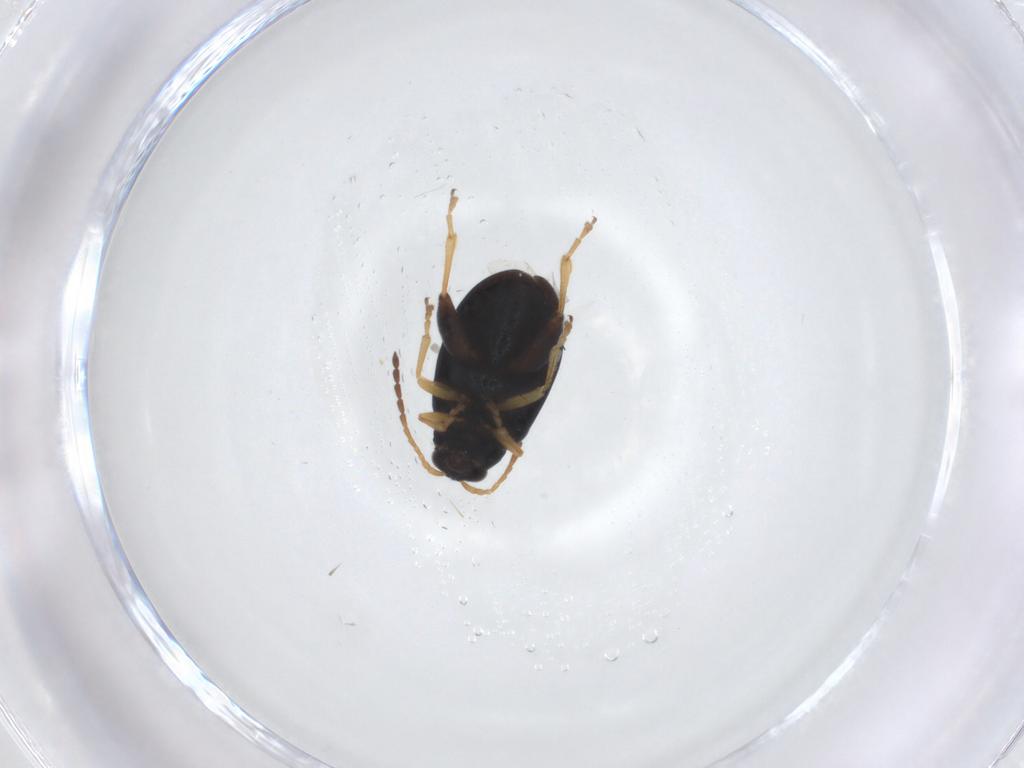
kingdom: Animalia
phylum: Arthropoda
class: Insecta
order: Coleoptera
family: Chrysomelidae
